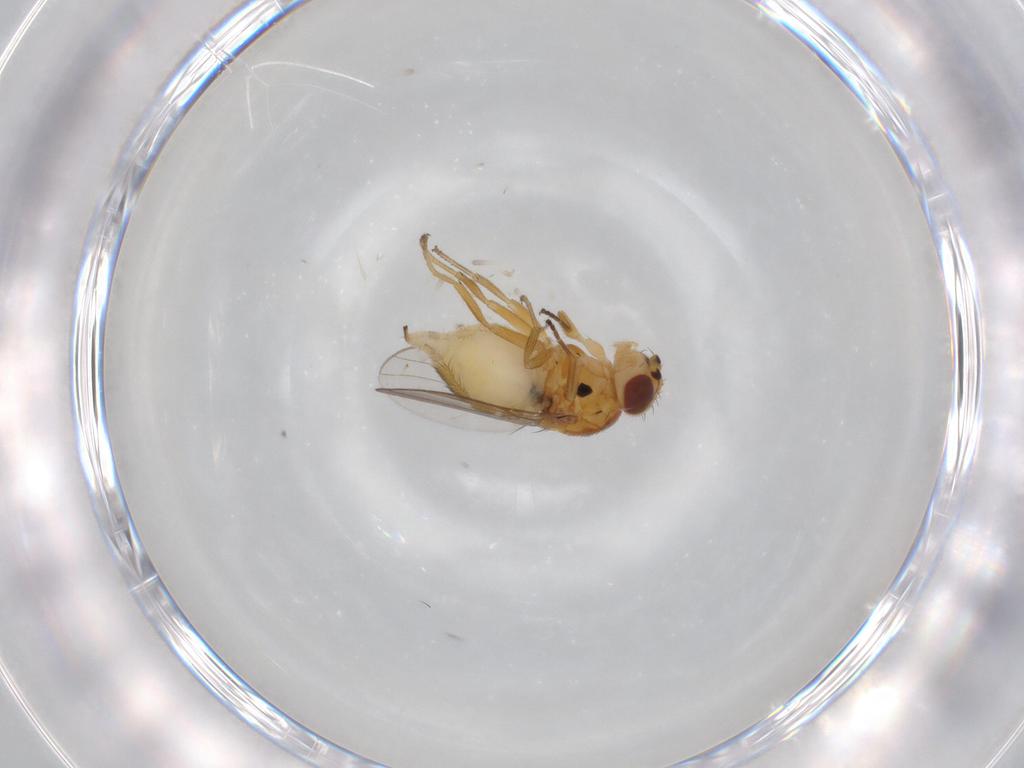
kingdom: Animalia
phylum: Arthropoda
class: Insecta
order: Diptera
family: Chloropidae
